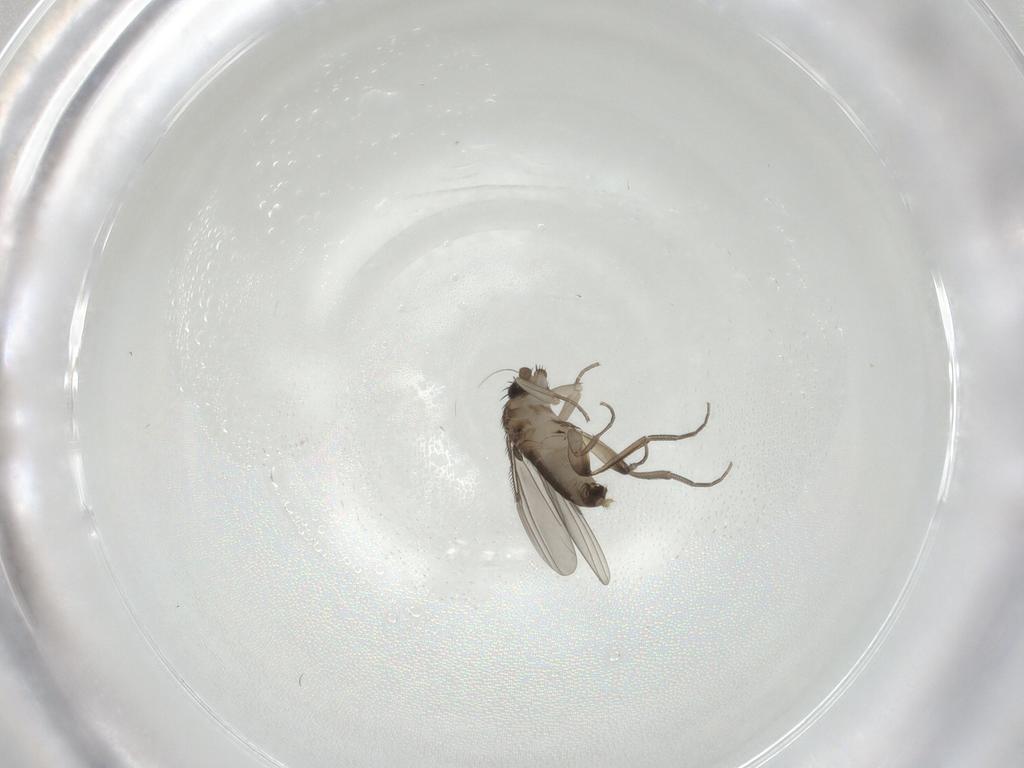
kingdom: Animalia
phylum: Arthropoda
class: Insecta
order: Diptera
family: Phoridae
